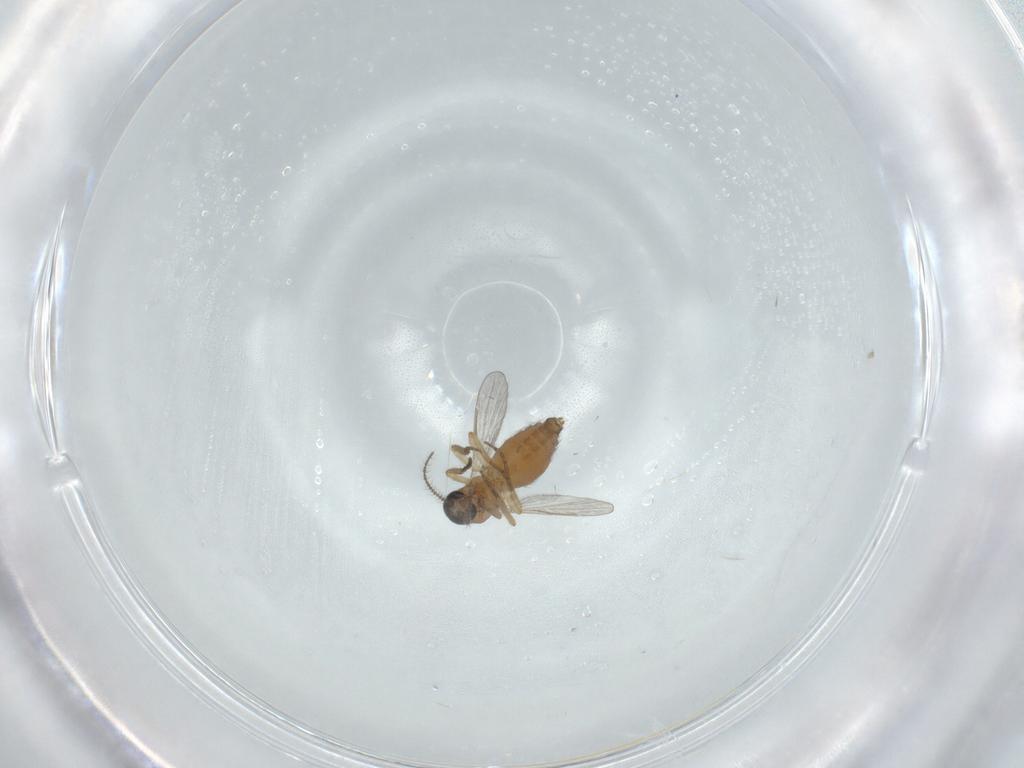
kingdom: Animalia
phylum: Arthropoda
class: Insecta
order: Diptera
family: Ceratopogonidae
